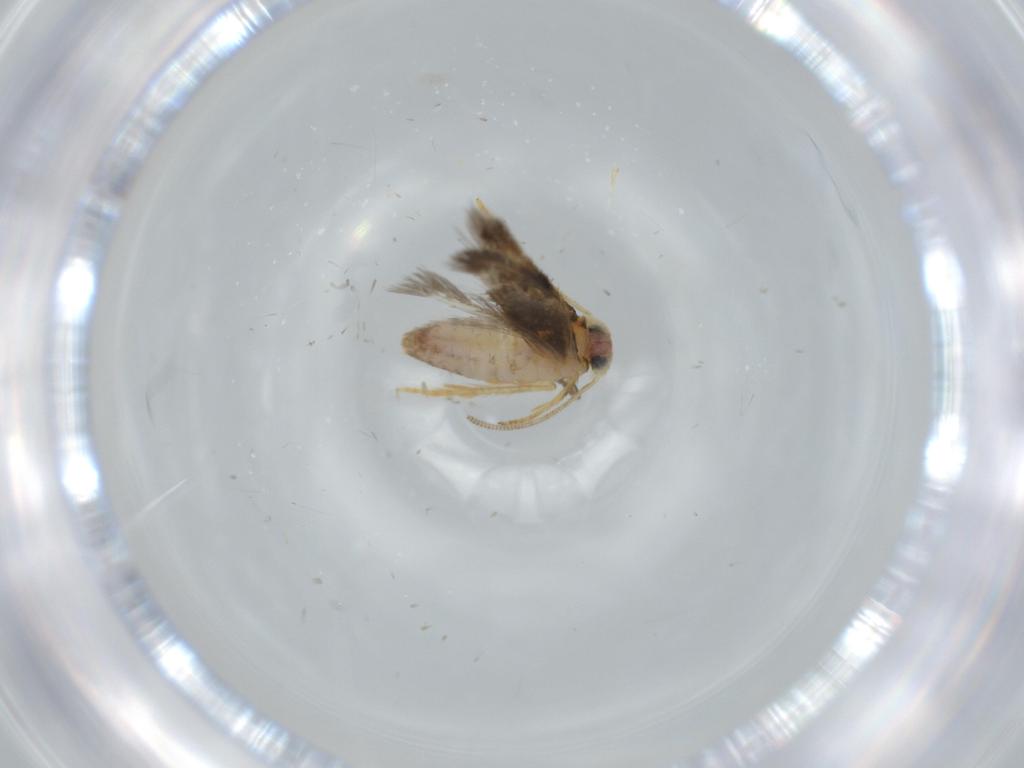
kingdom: Animalia
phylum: Arthropoda
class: Insecta
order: Lepidoptera
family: Nepticulidae
